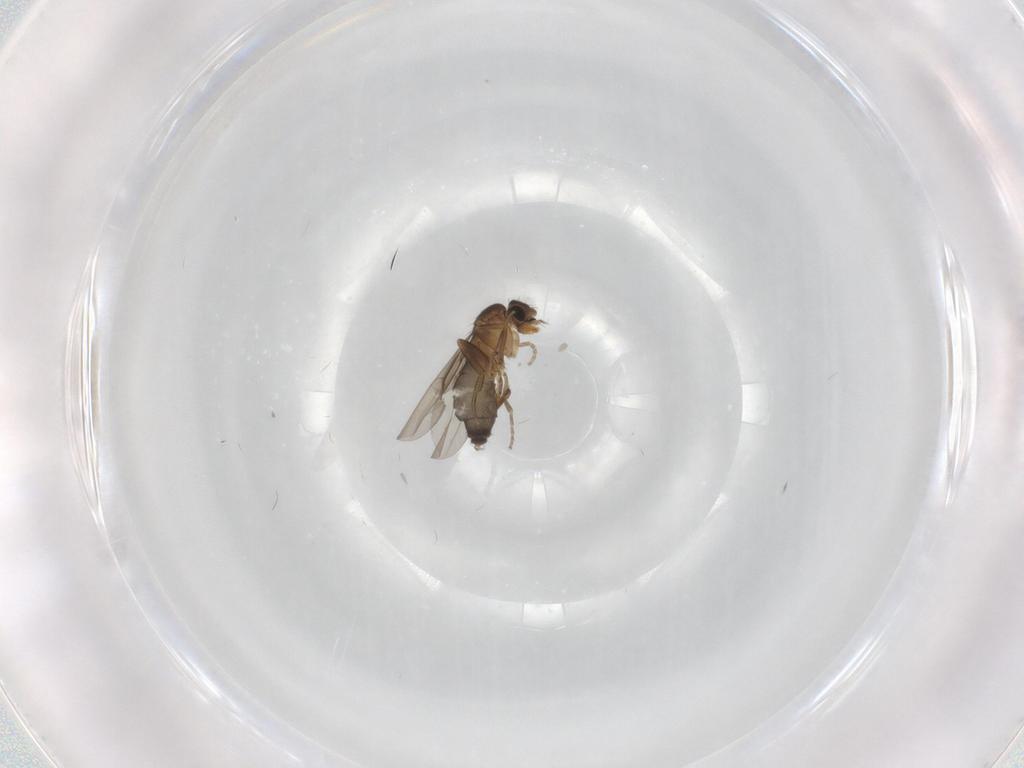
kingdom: Animalia
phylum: Arthropoda
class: Insecta
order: Diptera
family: Phoridae
